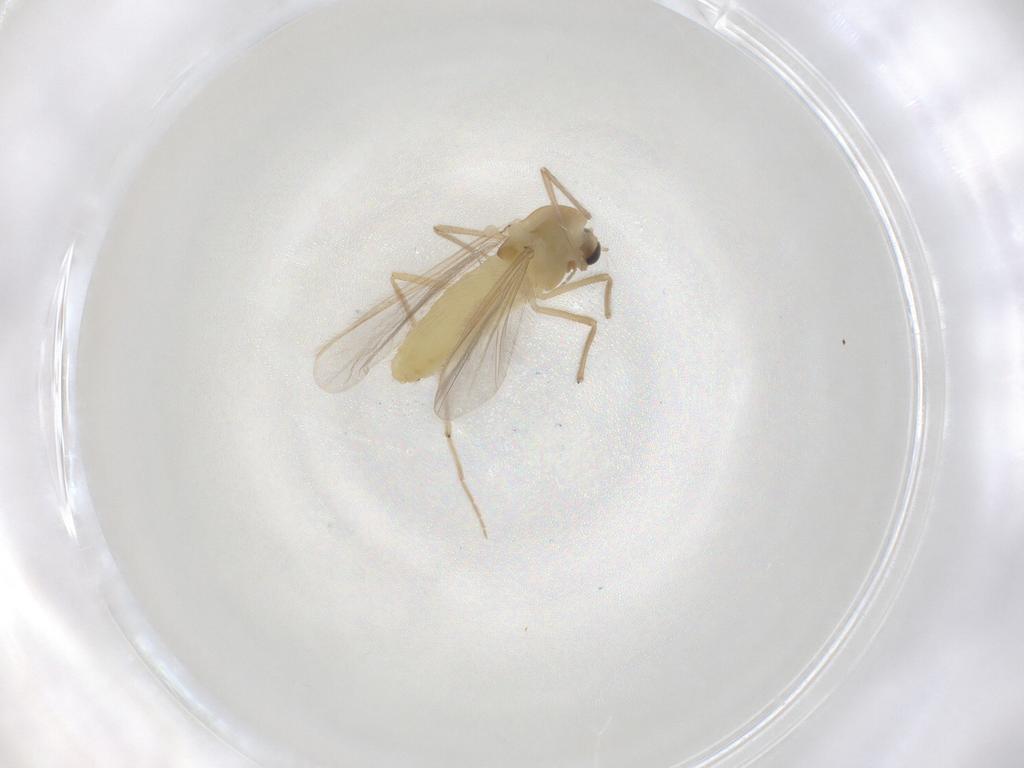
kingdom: Animalia
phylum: Arthropoda
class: Insecta
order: Diptera
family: Chironomidae
